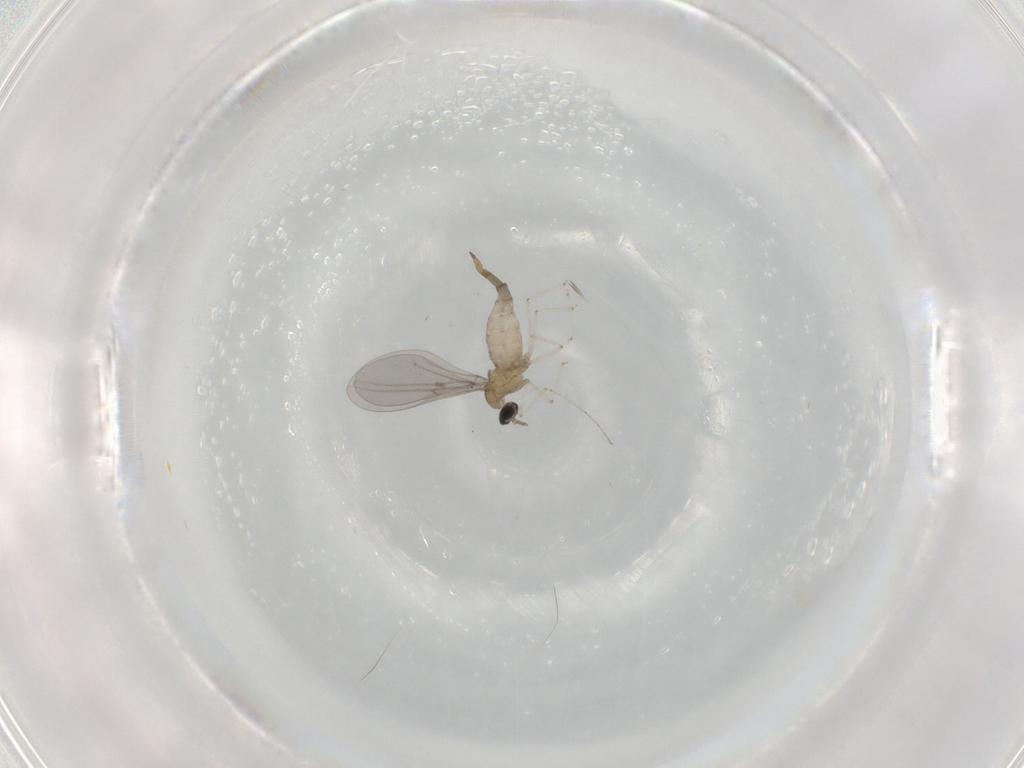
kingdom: Animalia
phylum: Arthropoda
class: Insecta
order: Diptera
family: Cecidomyiidae
